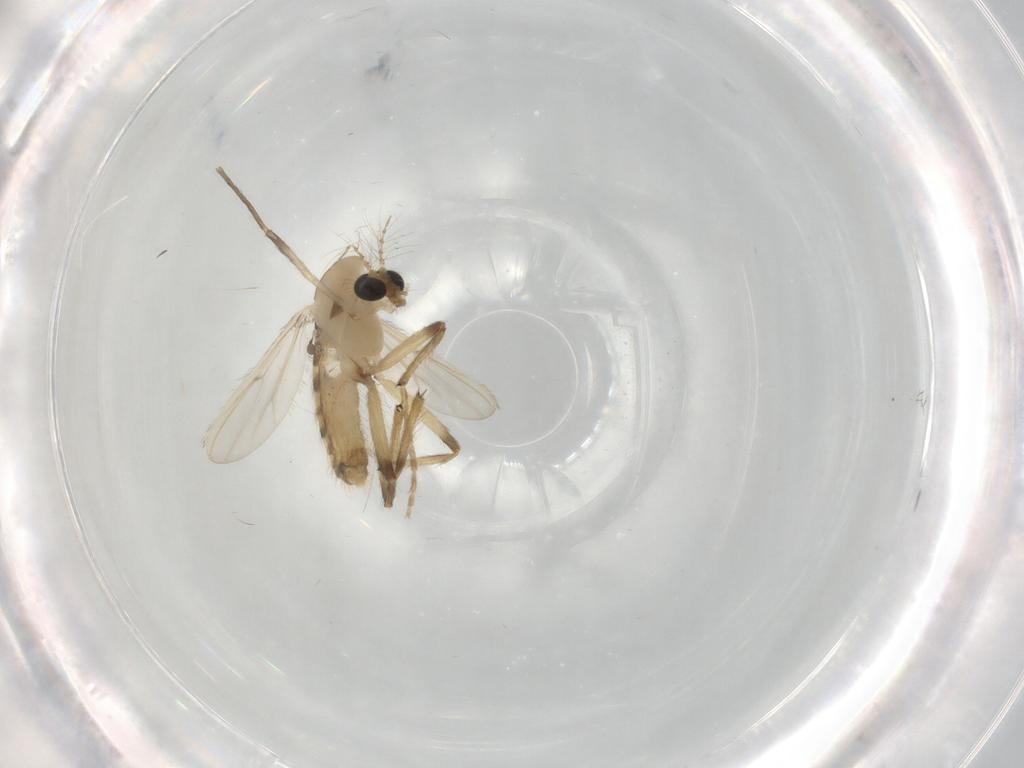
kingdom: Animalia
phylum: Arthropoda
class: Insecta
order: Diptera
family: Chironomidae
